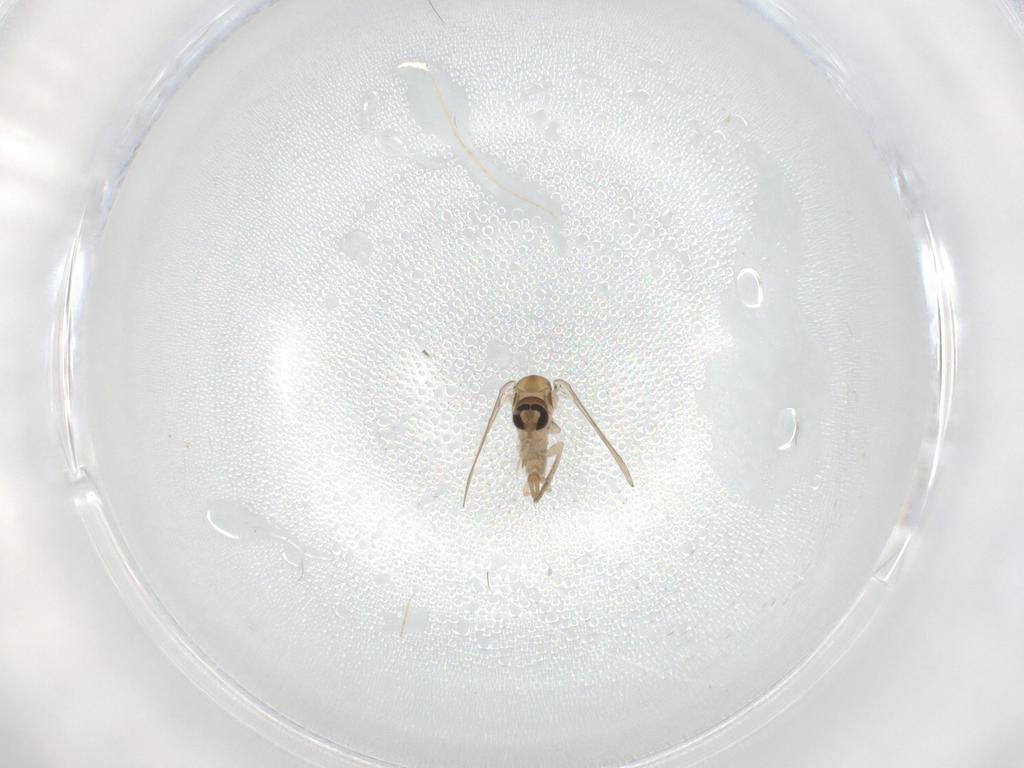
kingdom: Animalia
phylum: Arthropoda
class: Insecta
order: Diptera
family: Psychodidae
